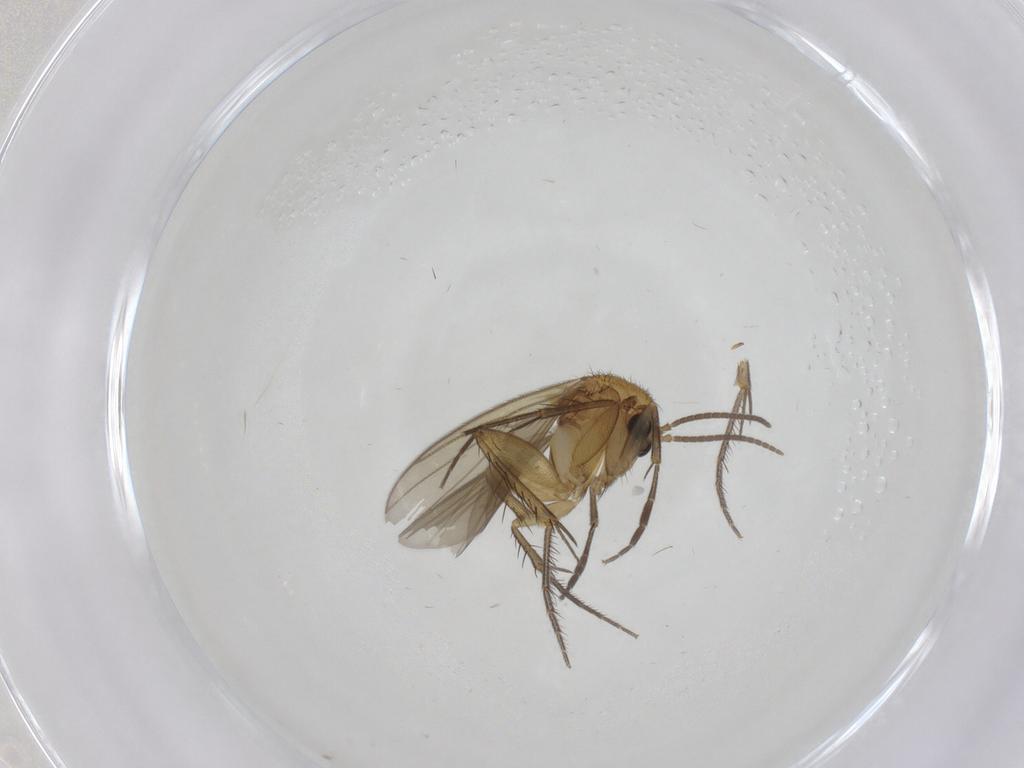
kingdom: Animalia
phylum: Arthropoda
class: Insecta
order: Diptera
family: Mycetophilidae
